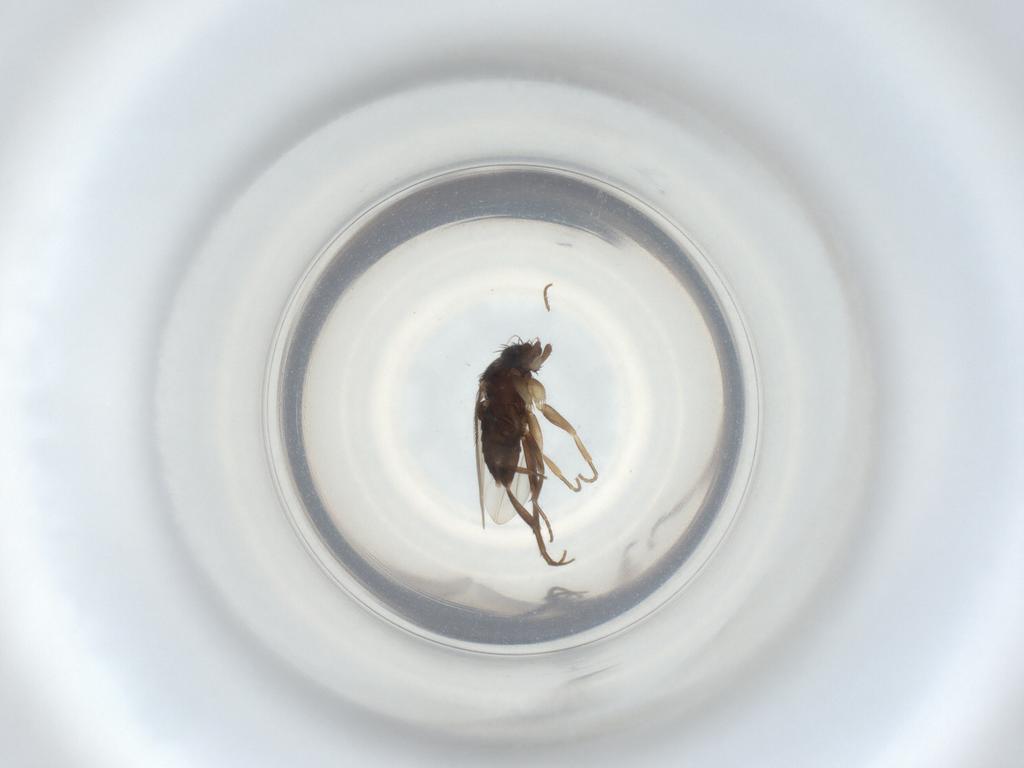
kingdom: Animalia
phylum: Arthropoda
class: Insecta
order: Diptera
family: Phoridae
